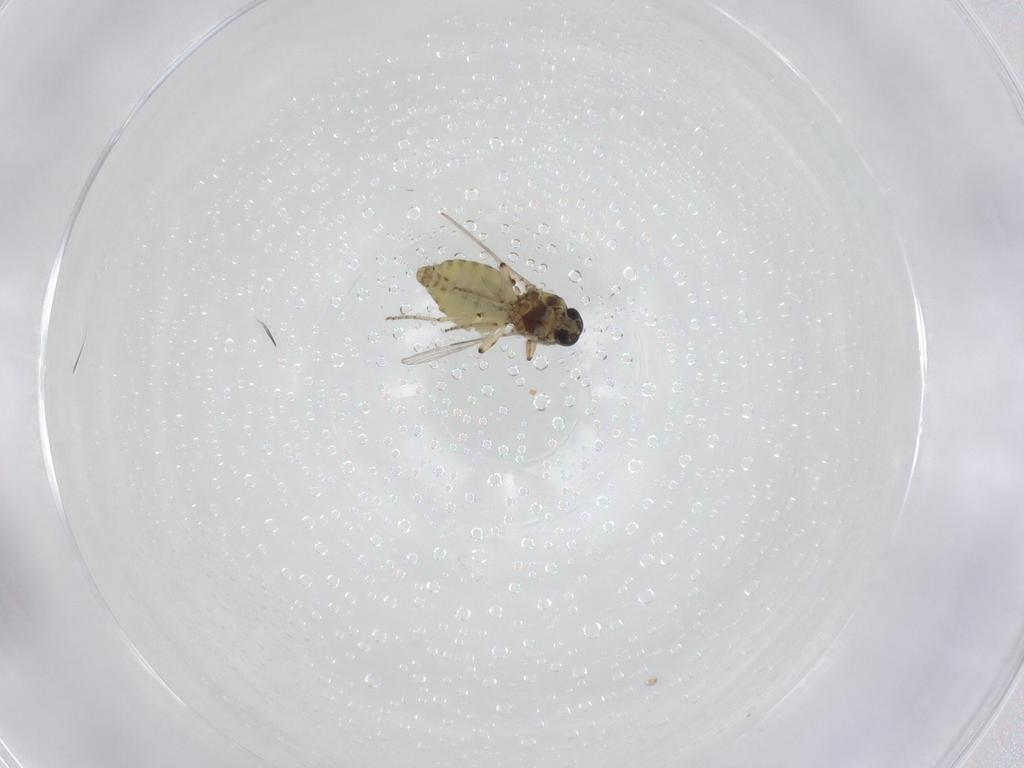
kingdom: Animalia
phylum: Arthropoda
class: Insecta
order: Diptera
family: Ceratopogonidae
